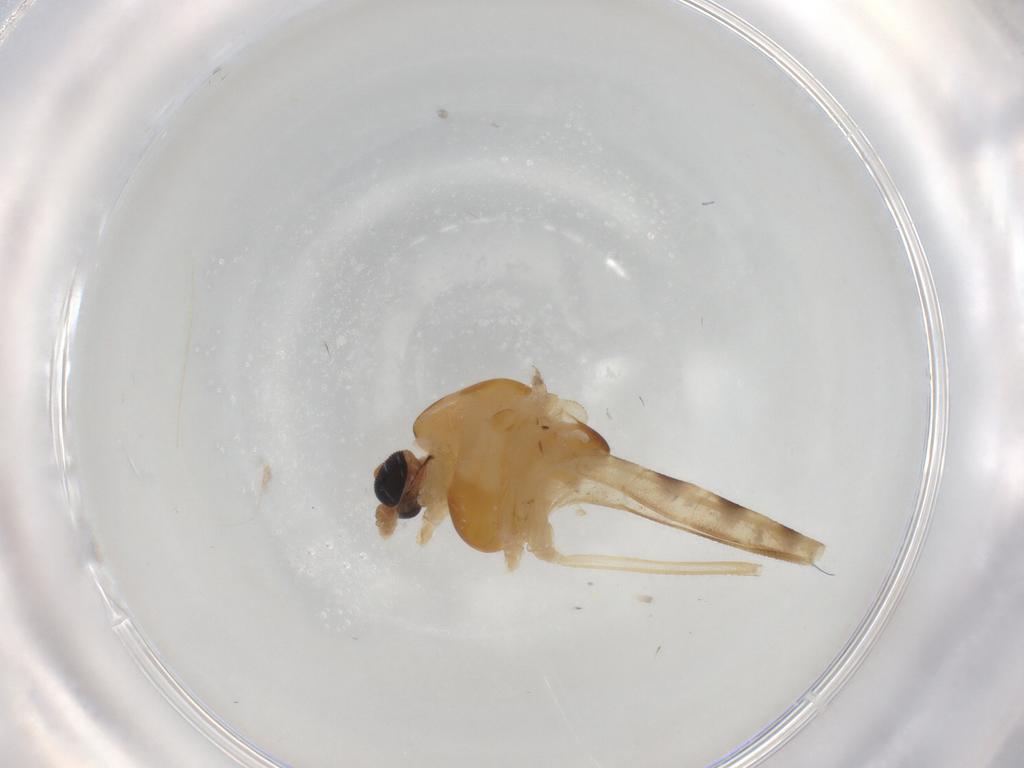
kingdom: Animalia
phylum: Arthropoda
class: Insecta
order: Diptera
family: Chironomidae
